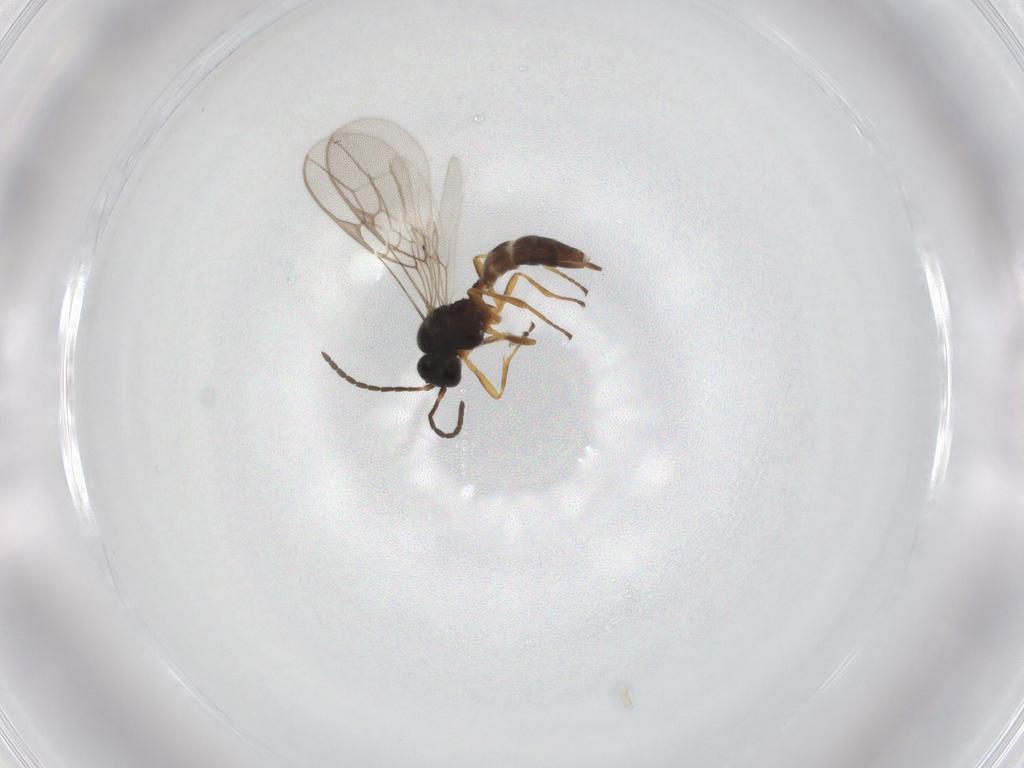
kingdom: Animalia
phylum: Arthropoda
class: Insecta
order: Hymenoptera
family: Braconidae
